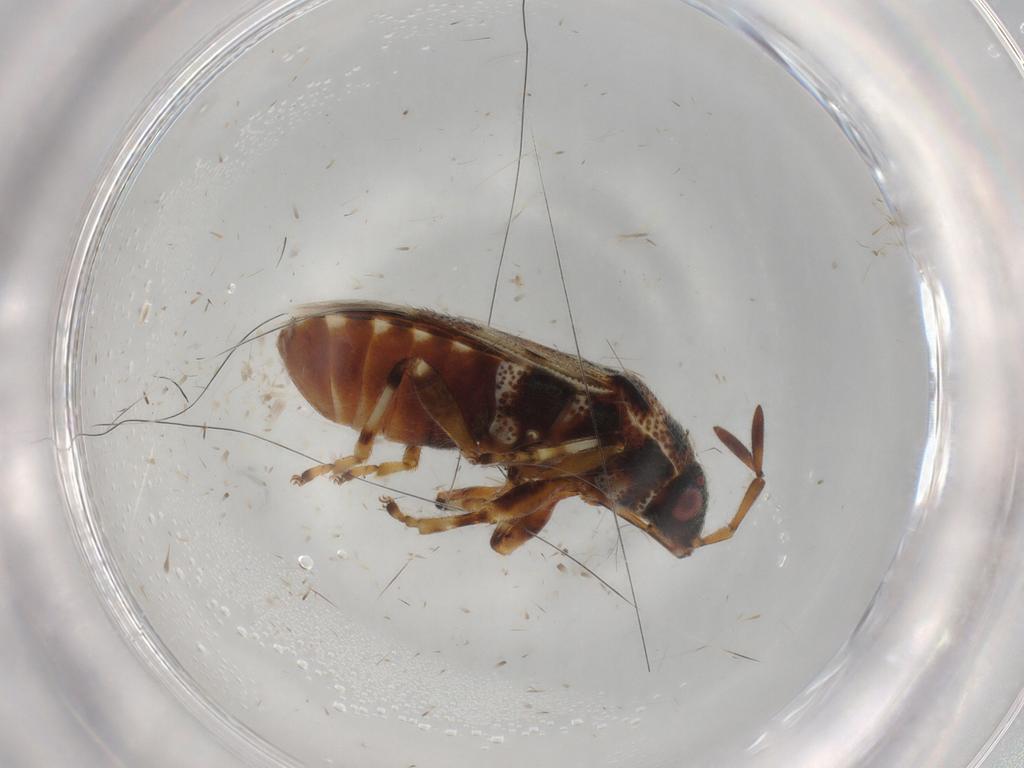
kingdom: Animalia
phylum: Arthropoda
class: Insecta
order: Hemiptera
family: Lygaeidae
